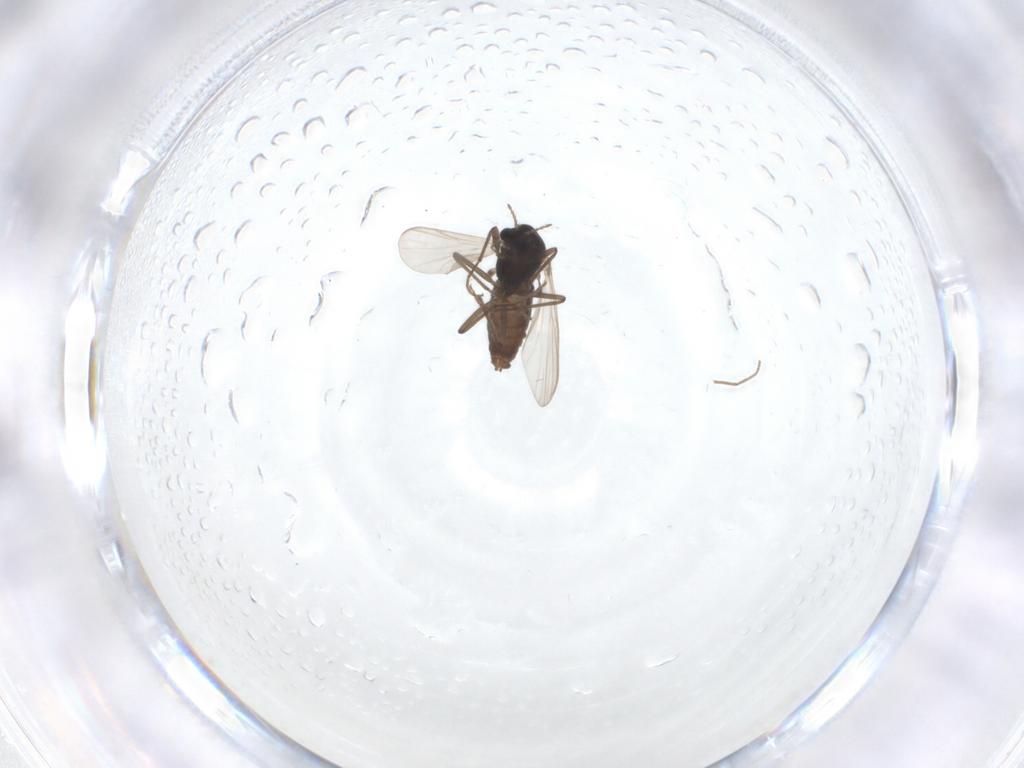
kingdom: Animalia
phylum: Arthropoda
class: Insecta
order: Diptera
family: Chironomidae
